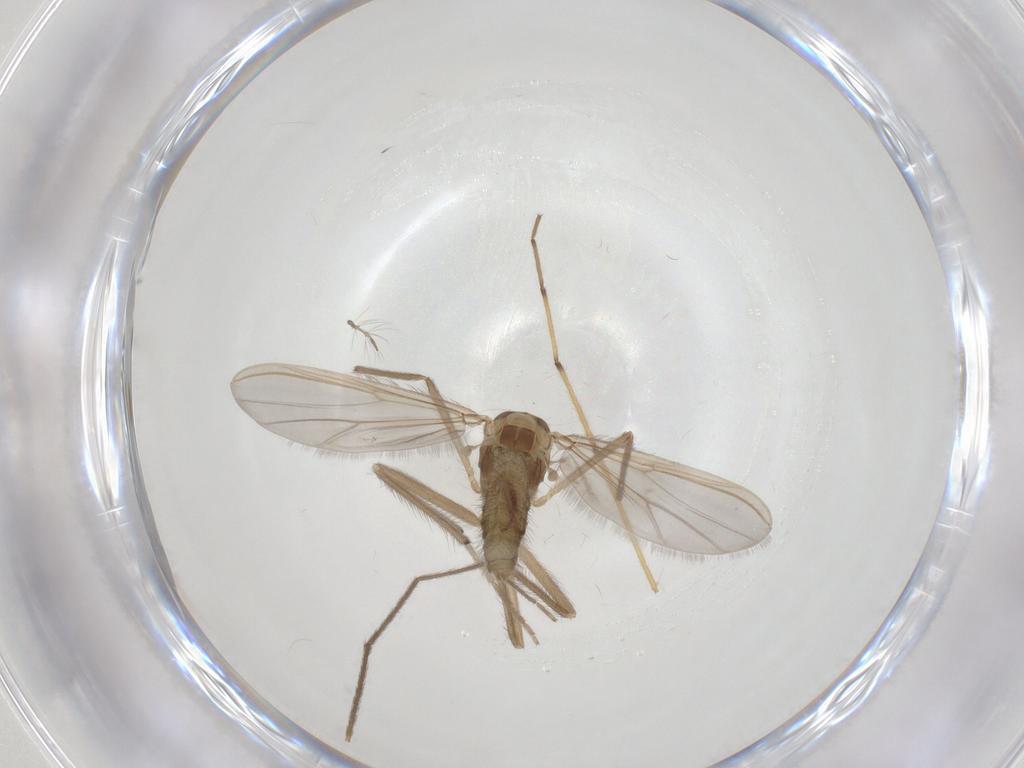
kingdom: Animalia
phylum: Arthropoda
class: Insecta
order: Diptera
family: Chironomidae
